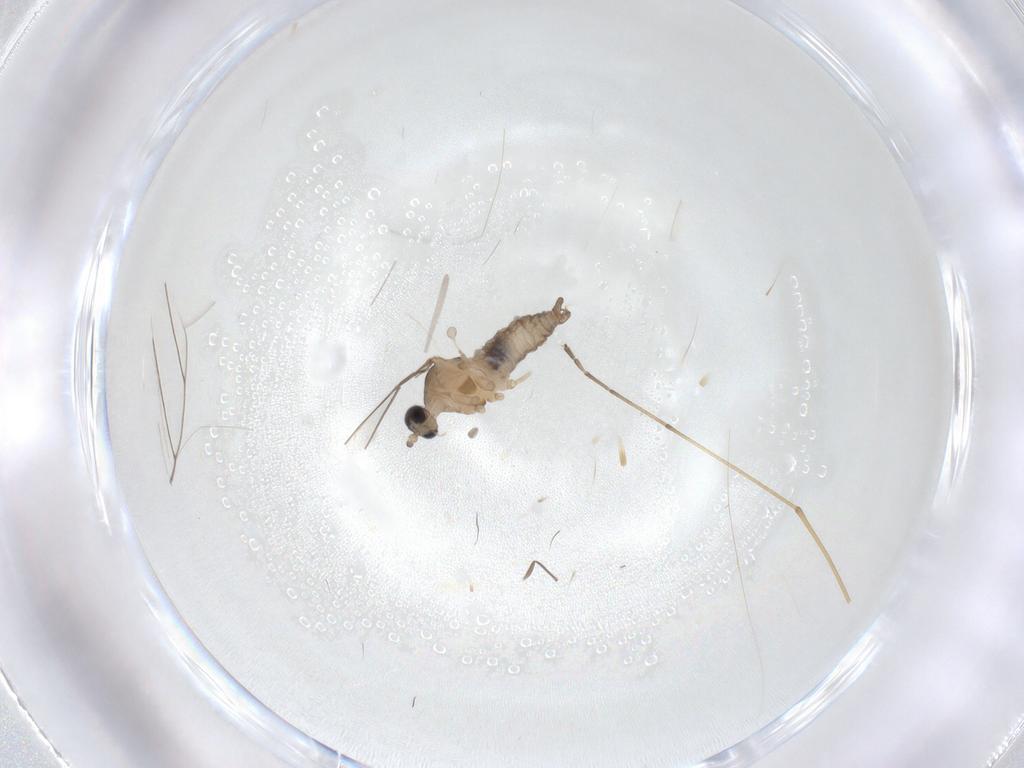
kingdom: Animalia
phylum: Arthropoda
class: Insecta
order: Diptera
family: Cecidomyiidae
